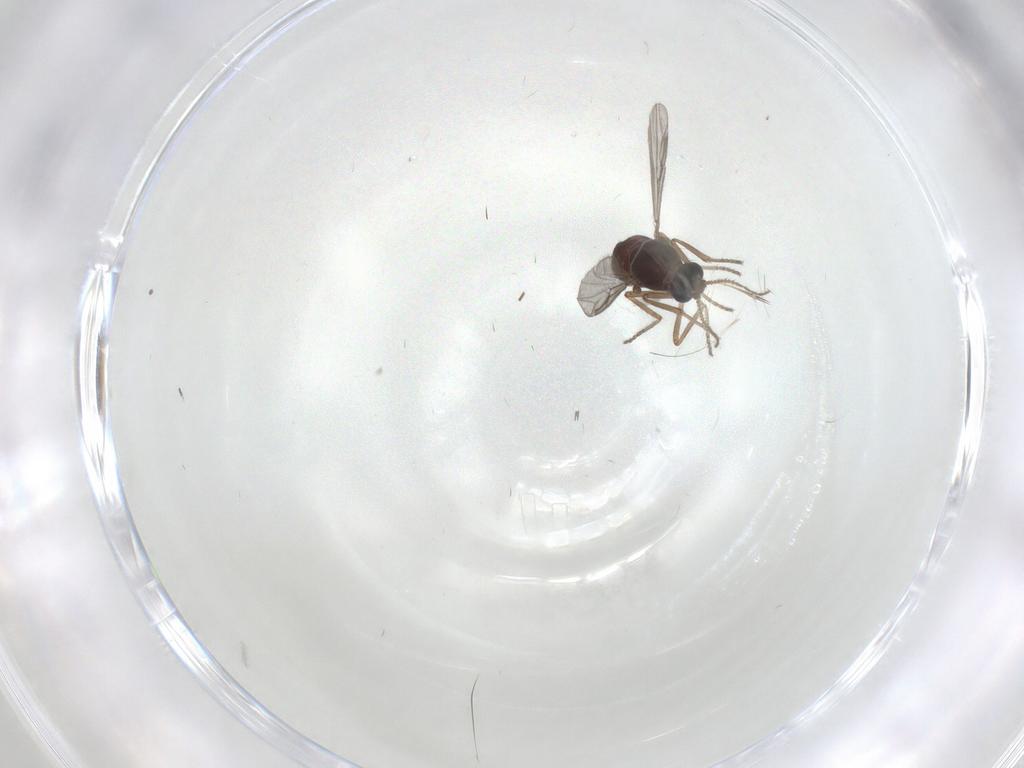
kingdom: Animalia
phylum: Arthropoda
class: Insecta
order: Diptera
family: Ceratopogonidae
